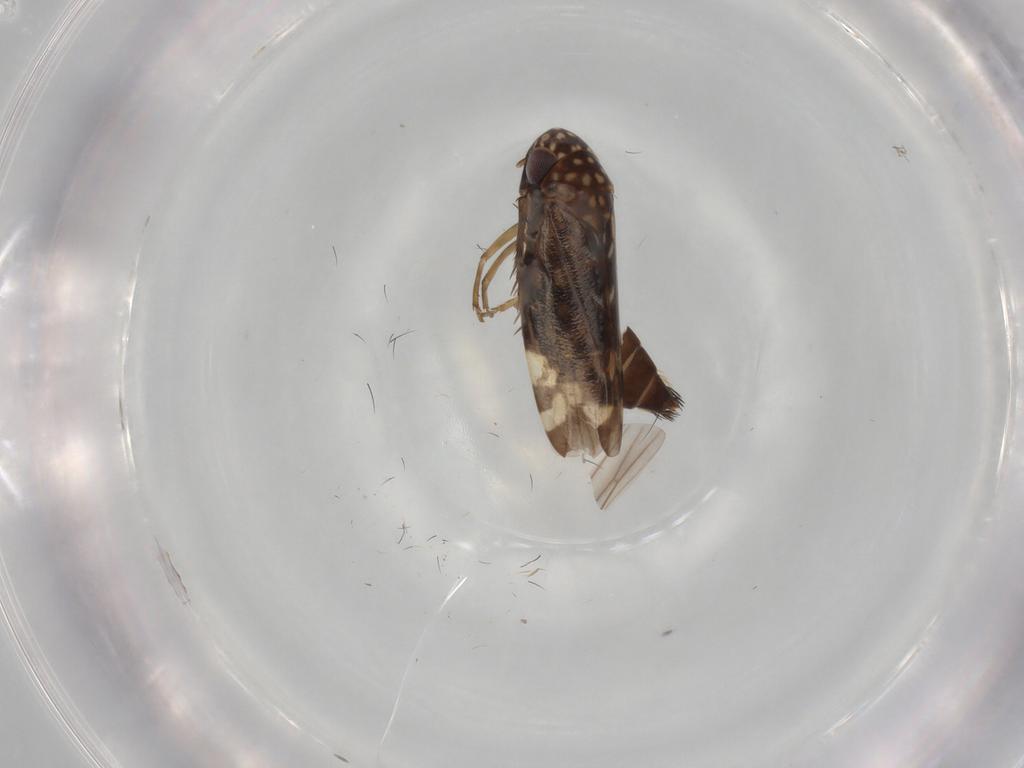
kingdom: Animalia
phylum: Arthropoda
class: Insecta
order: Hemiptera
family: Cicadellidae
